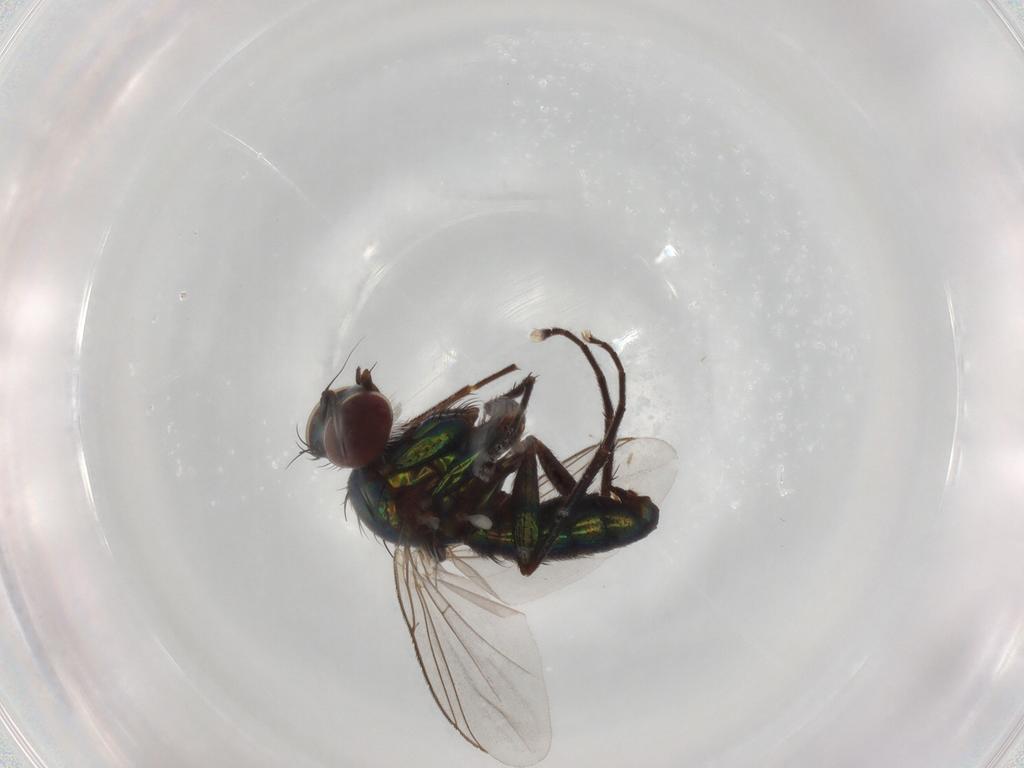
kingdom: Animalia
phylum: Arthropoda
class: Insecta
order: Diptera
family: Dolichopodidae
